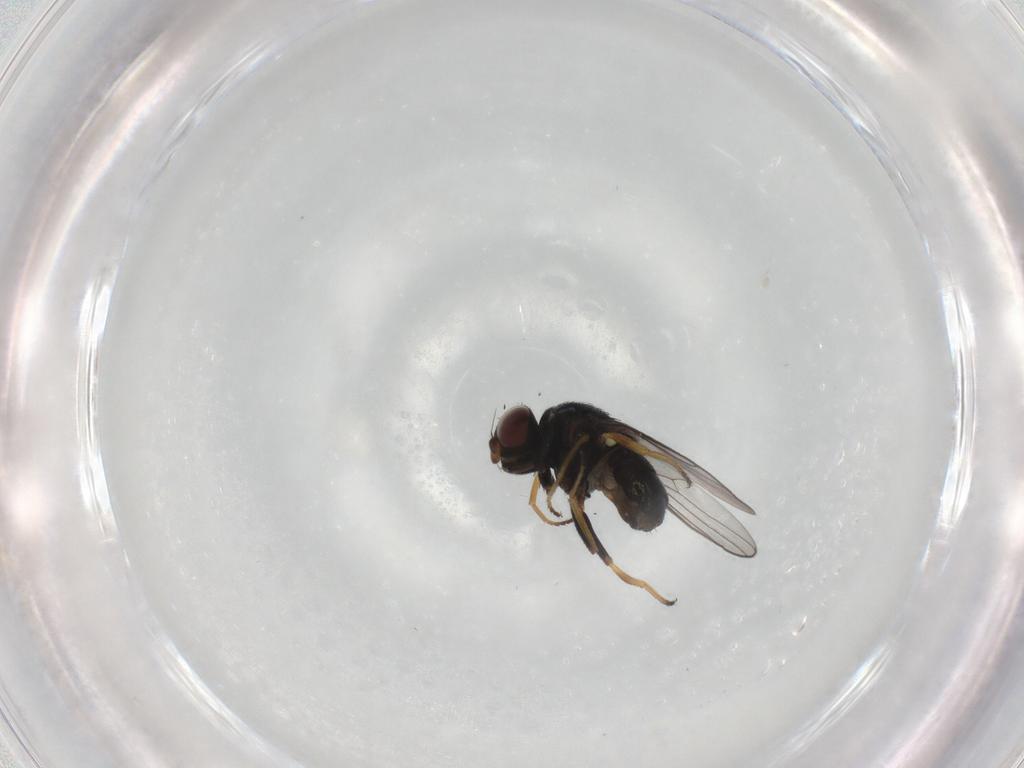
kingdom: Animalia
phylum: Arthropoda
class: Insecta
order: Diptera
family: Chloropidae
